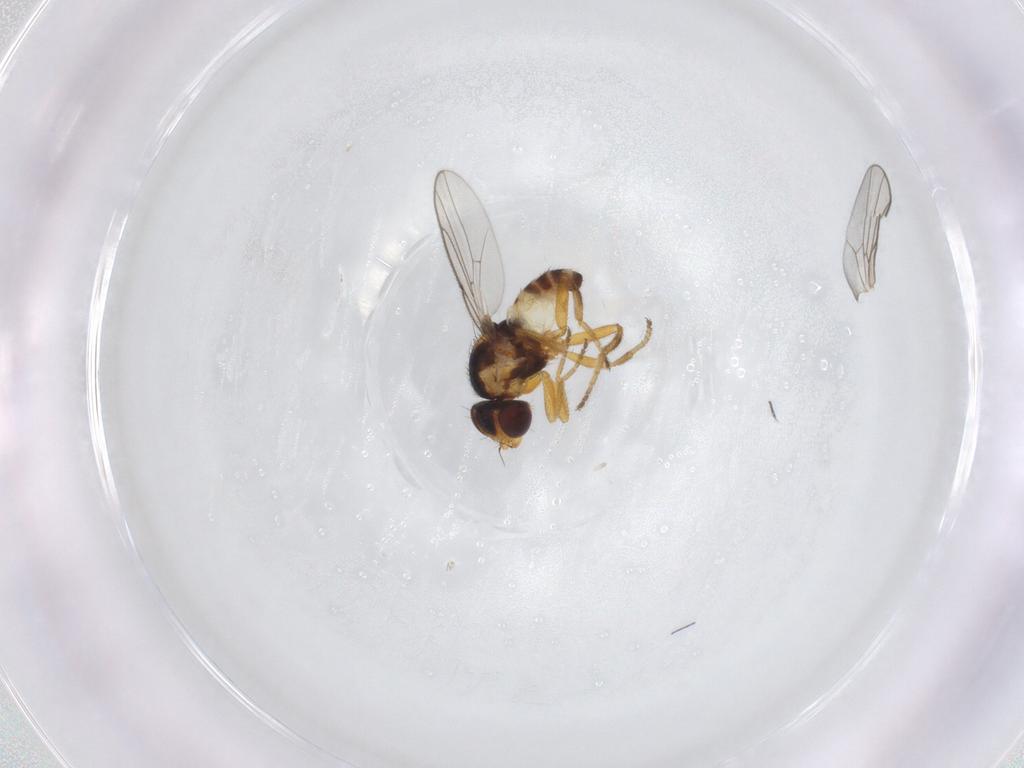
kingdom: Animalia
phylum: Arthropoda
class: Insecta
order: Diptera
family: Chloropidae
